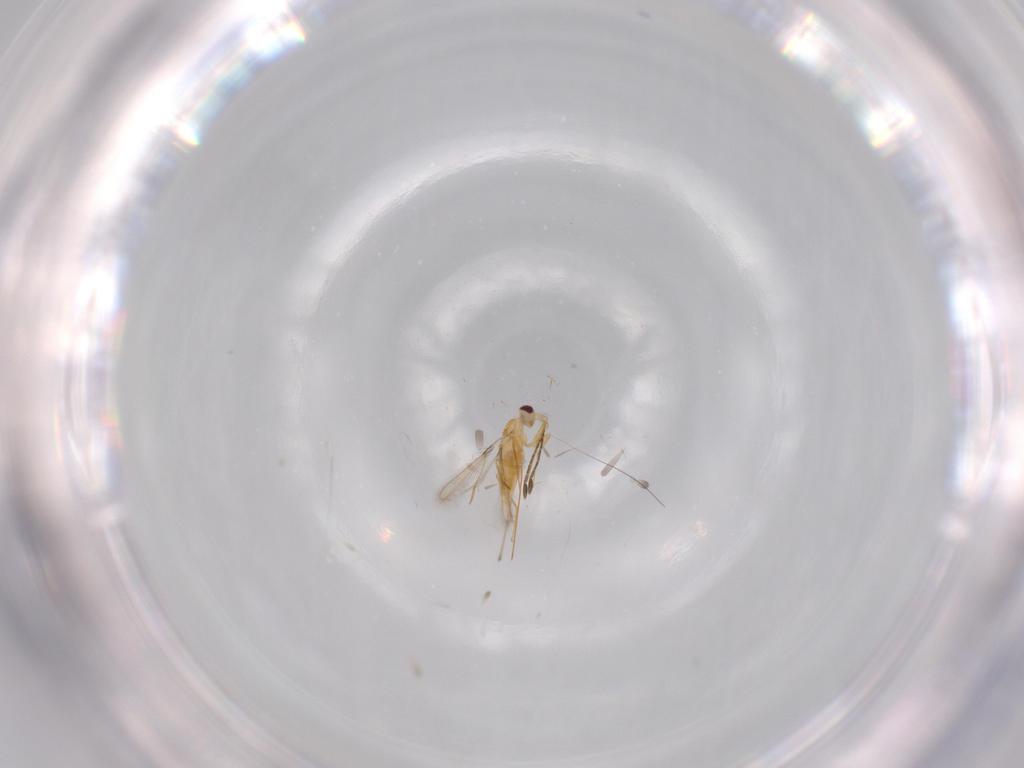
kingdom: Animalia
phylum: Arthropoda
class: Insecta
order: Hymenoptera
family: Mymaridae
